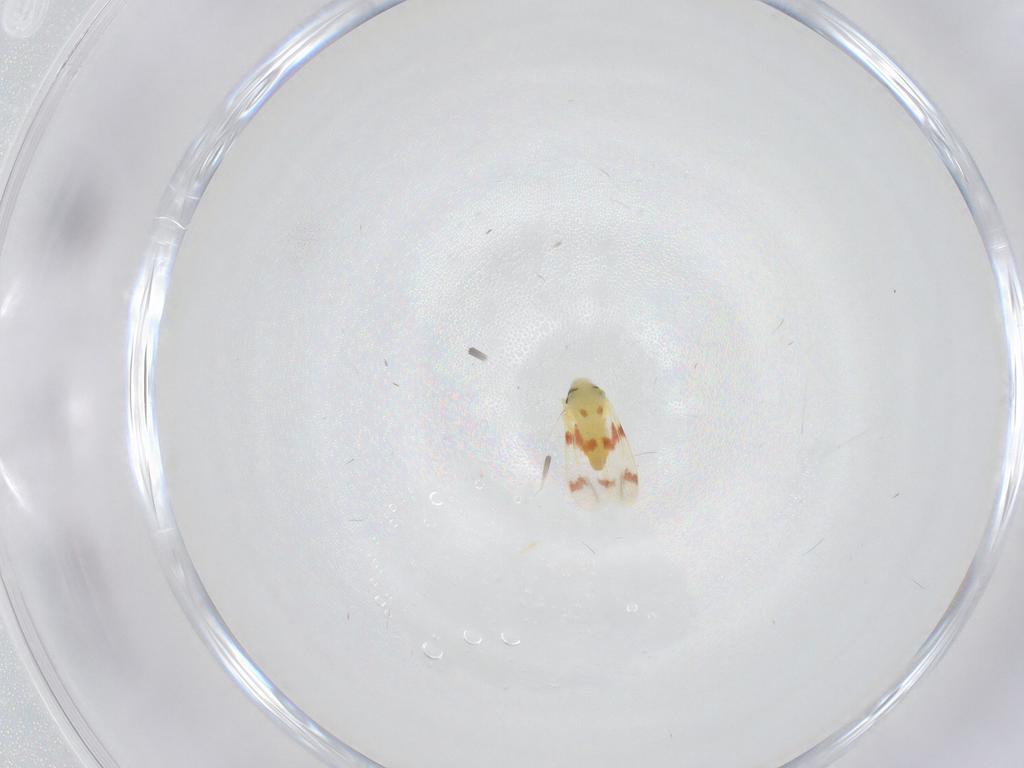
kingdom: Animalia
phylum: Arthropoda
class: Insecta
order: Hemiptera
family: Aleyrodidae
